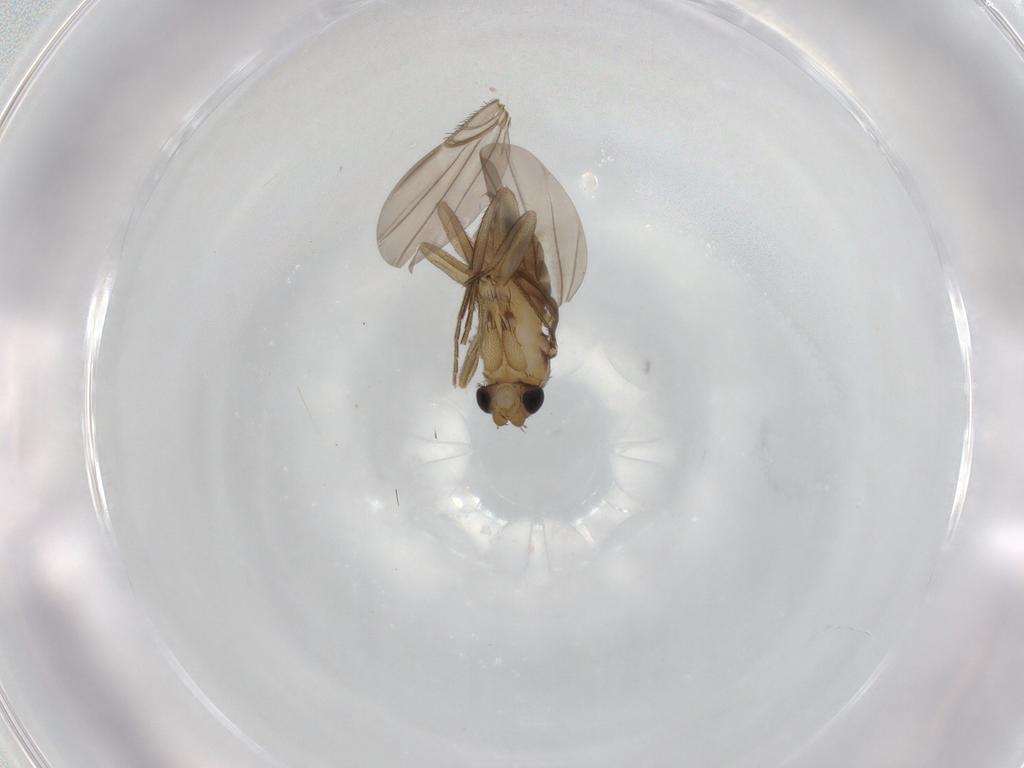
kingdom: Animalia
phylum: Arthropoda
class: Insecta
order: Diptera
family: Phoridae
